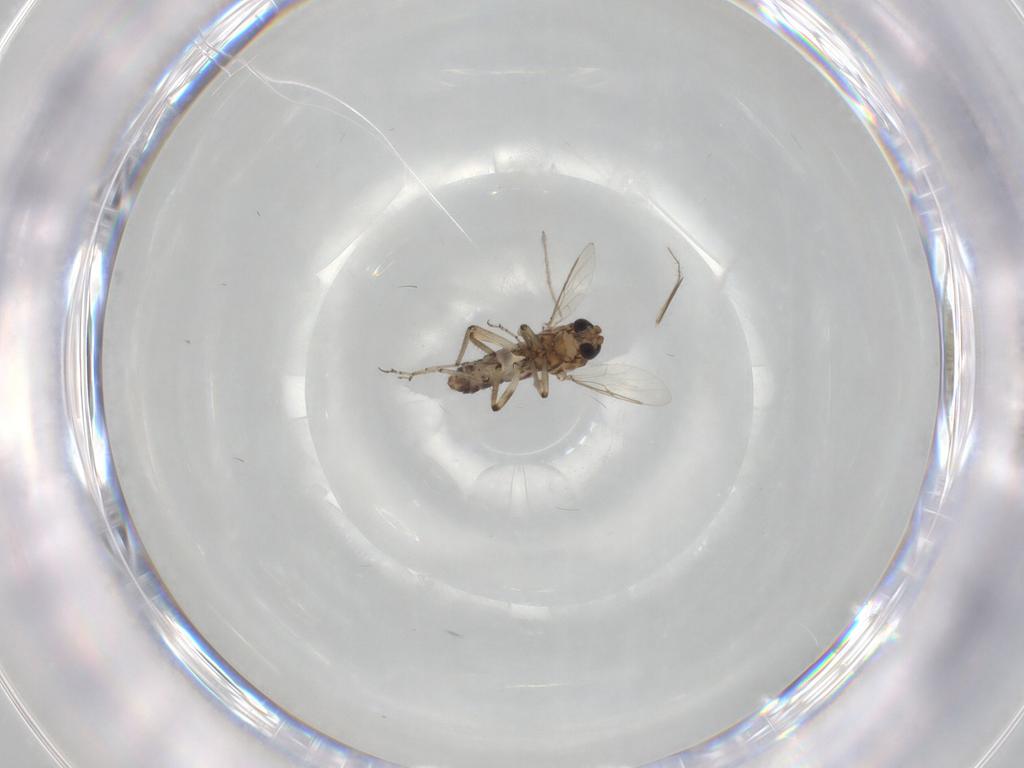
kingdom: Animalia
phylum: Arthropoda
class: Insecta
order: Diptera
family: Ceratopogonidae
